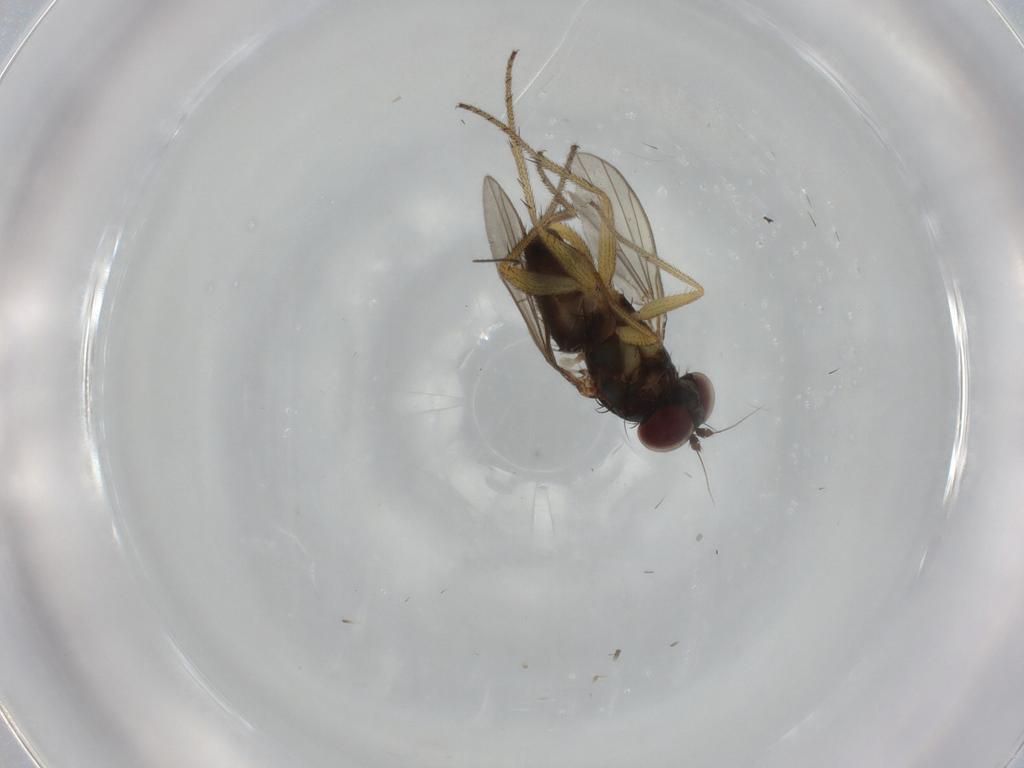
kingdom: Animalia
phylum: Arthropoda
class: Insecta
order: Diptera
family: Dolichopodidae
